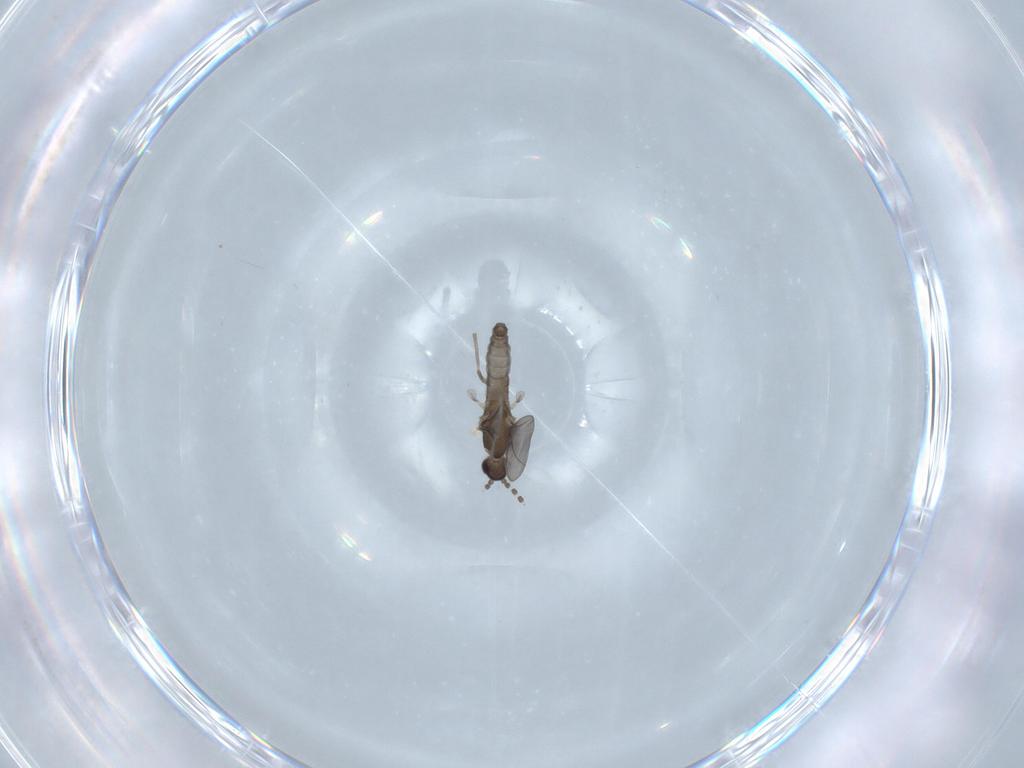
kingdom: Animalia
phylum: Arthropoda
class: Insecta
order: Diptera
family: Cecidomyiidae
